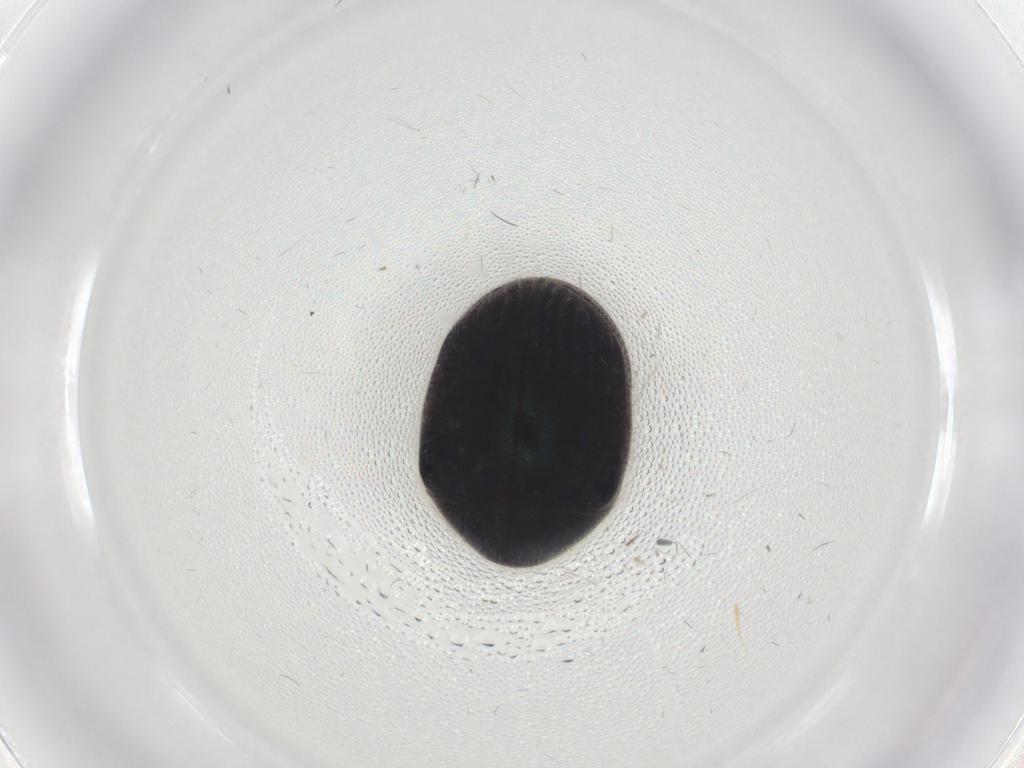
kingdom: Animalia
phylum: Arthropoda
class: Insecta
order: Coleoptera
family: Ptinidae
